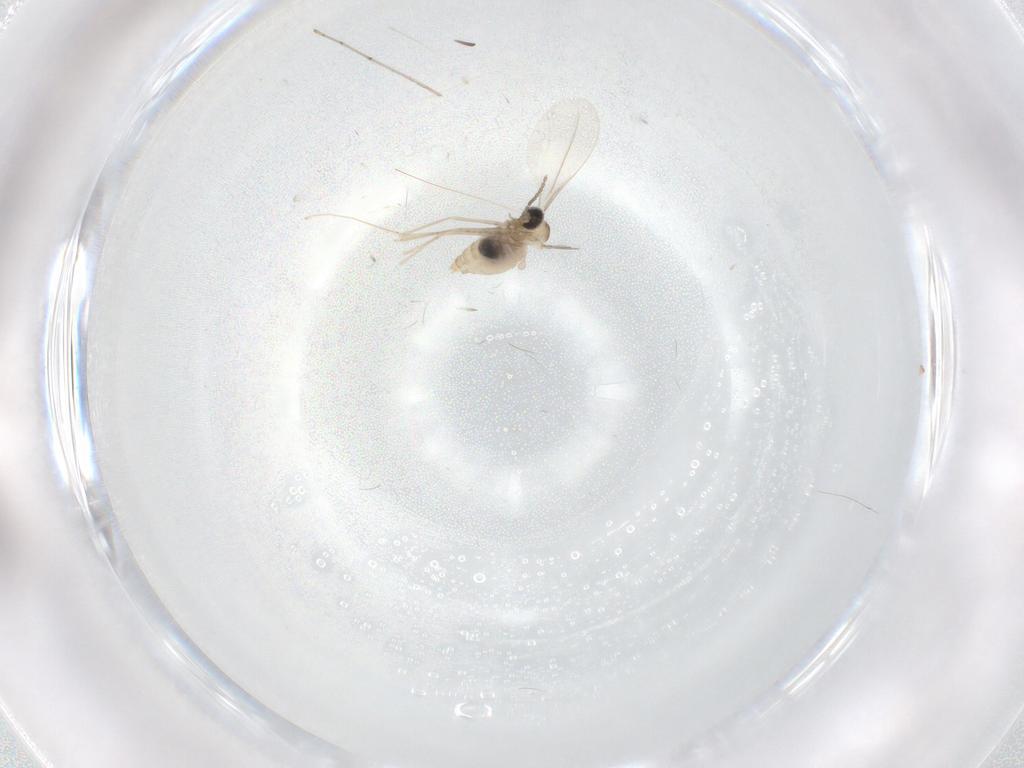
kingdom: Animalia
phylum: Arthropoda
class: Insecta
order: Diptera
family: Cecidomyiidae
